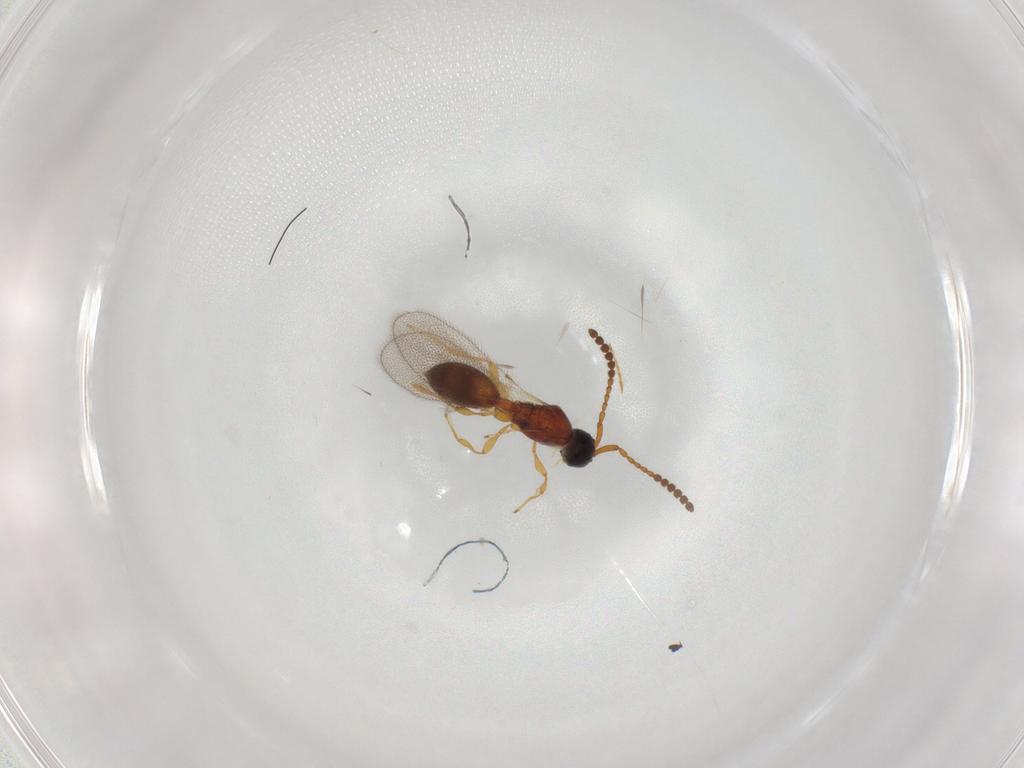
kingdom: Animalia
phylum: Arthropoda
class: Insecta
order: Hymenoptera
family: Diapriidae
